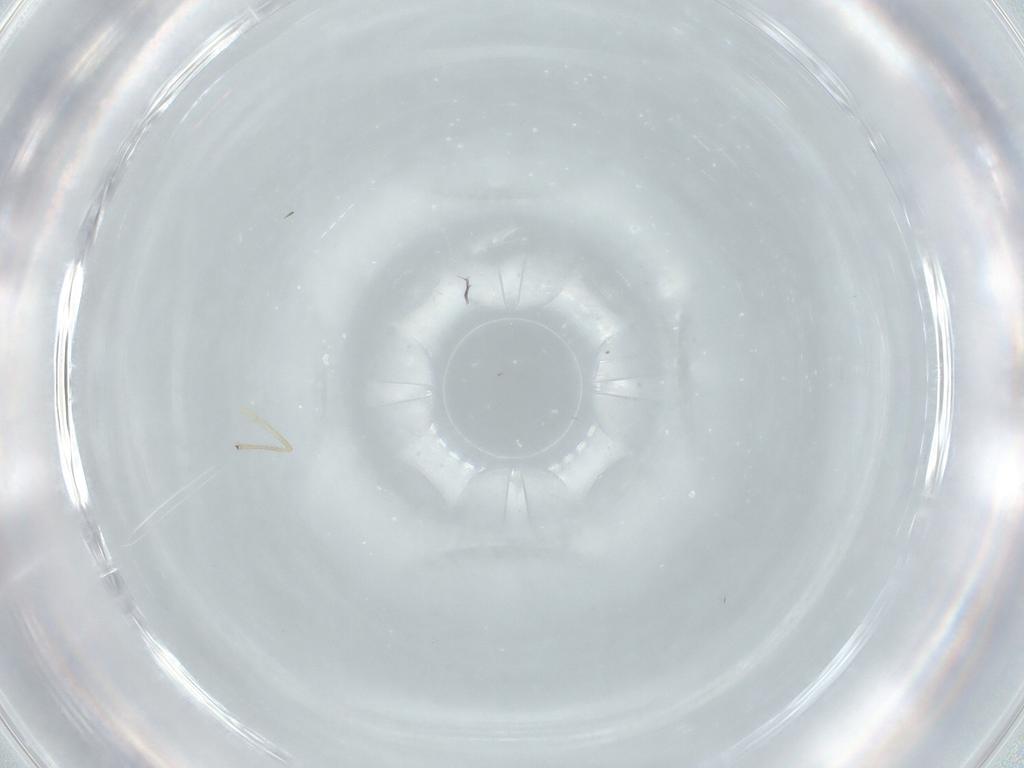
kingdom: Animalia
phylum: Arthropoda
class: Insecta
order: Diptera
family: Cecidomyiidae
